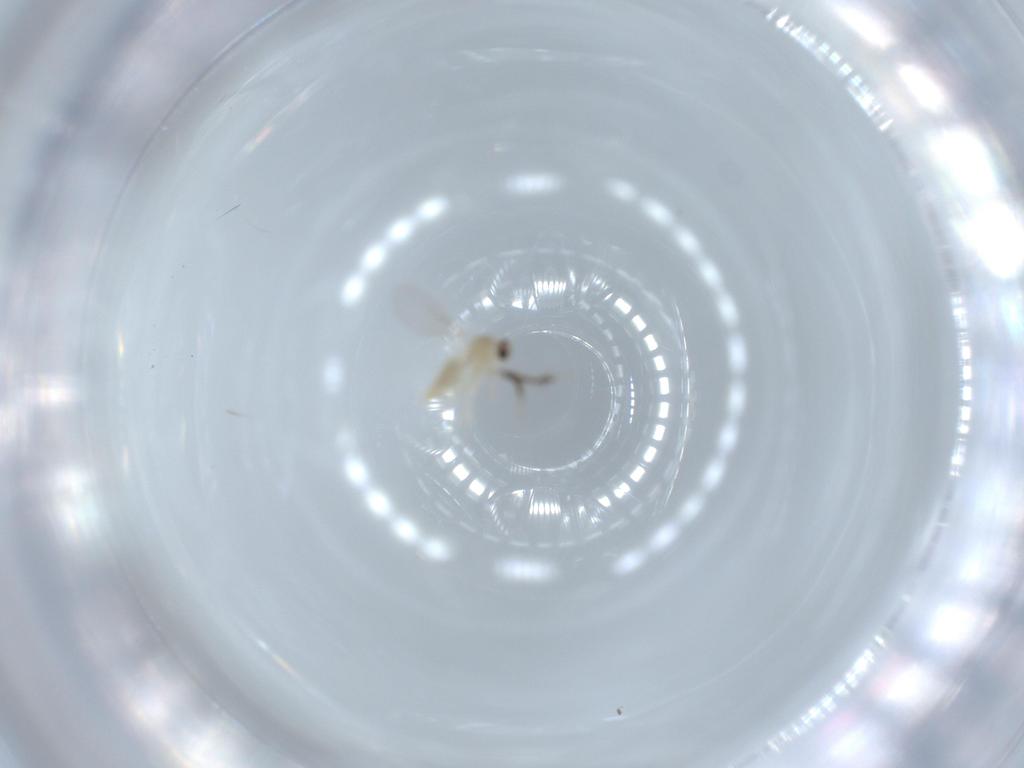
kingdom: Animalia
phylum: Arthropoda
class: Insecta
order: Diptera
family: Cecidomyiidae
